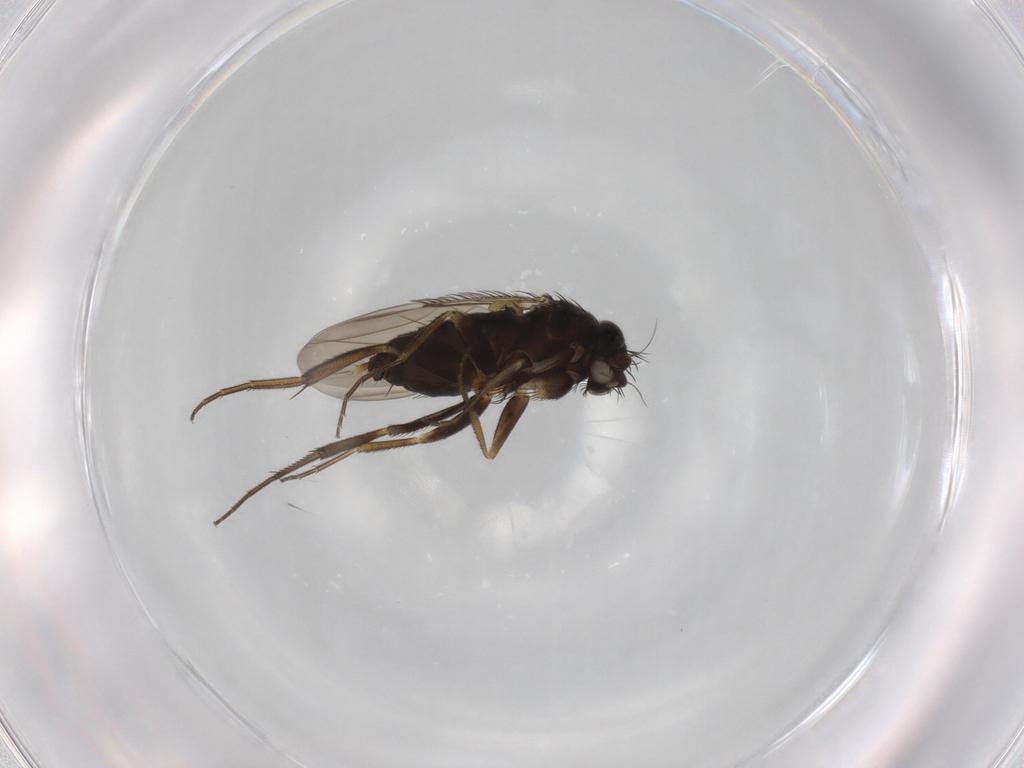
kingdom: Animalia
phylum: Arthropoda
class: Insecta
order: Diptera
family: Phoridae
